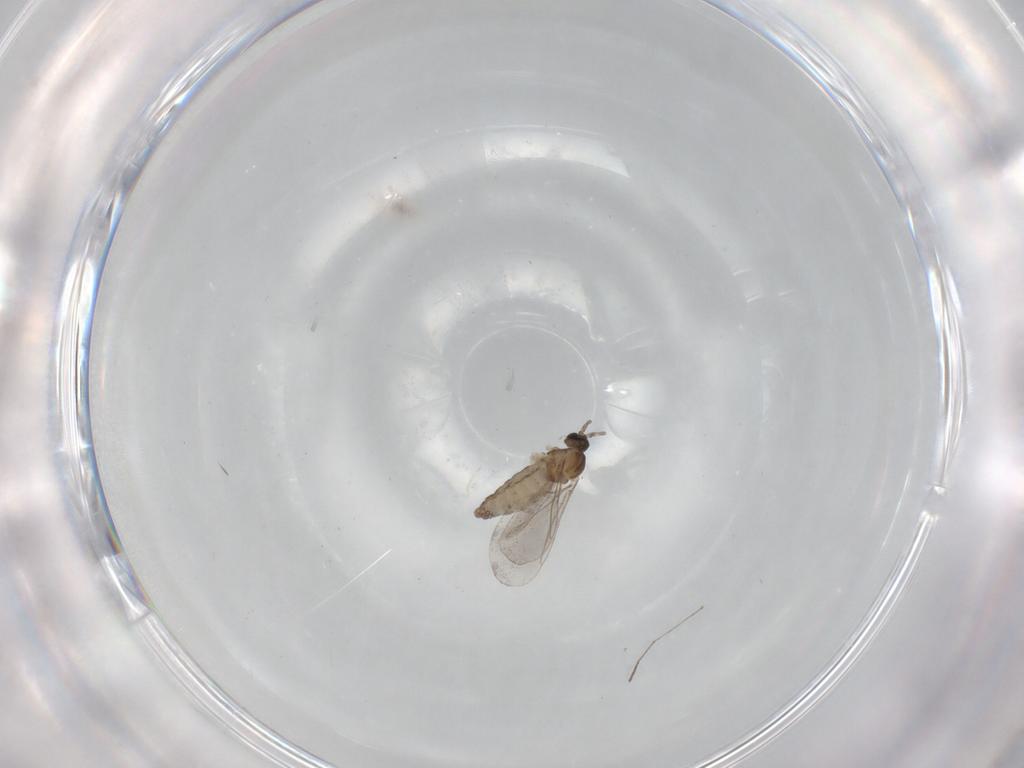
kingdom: Animalia
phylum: Arthropoda
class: Insecta
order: Diptera
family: Cecidomyiidae
